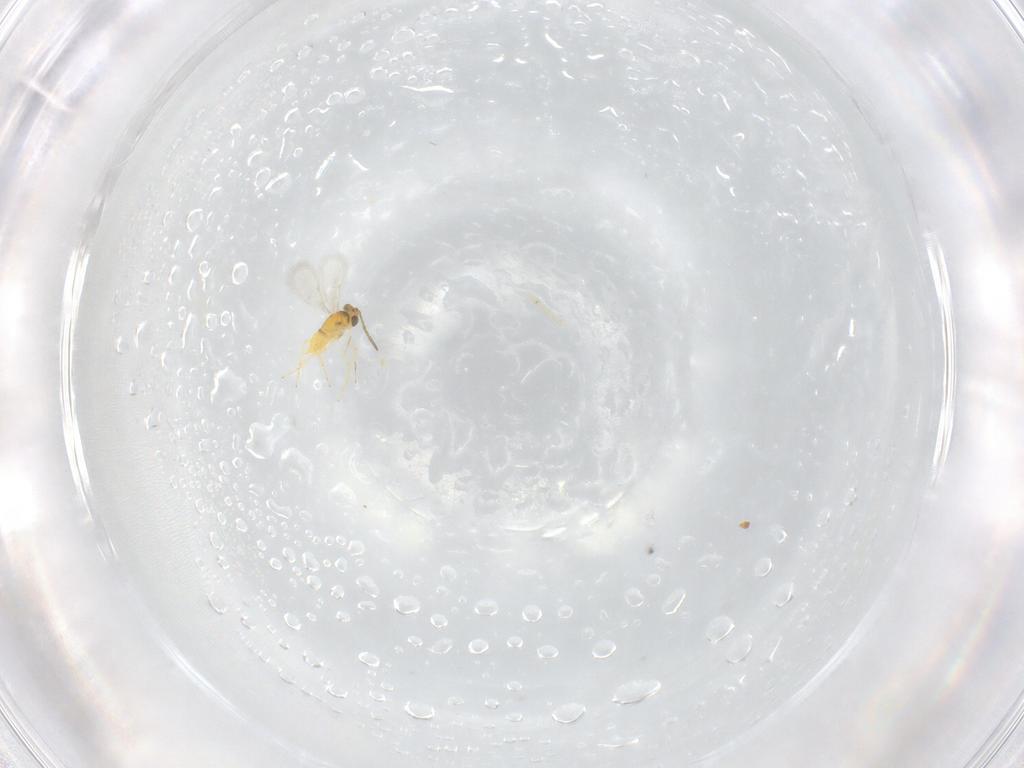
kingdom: Animalia
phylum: Arthropoda
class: Insecta
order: Hymenoptera
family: Aphelinidae
